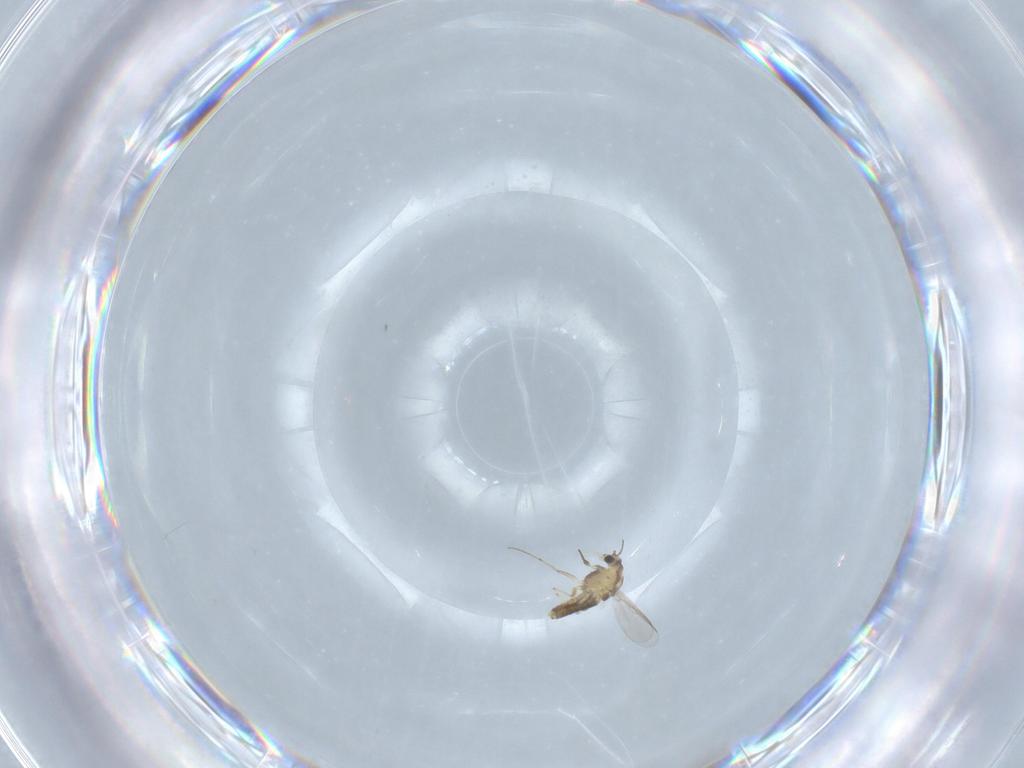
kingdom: Animalia
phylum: Arthropoda
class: Insecta
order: Diptera
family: Chironomidae
